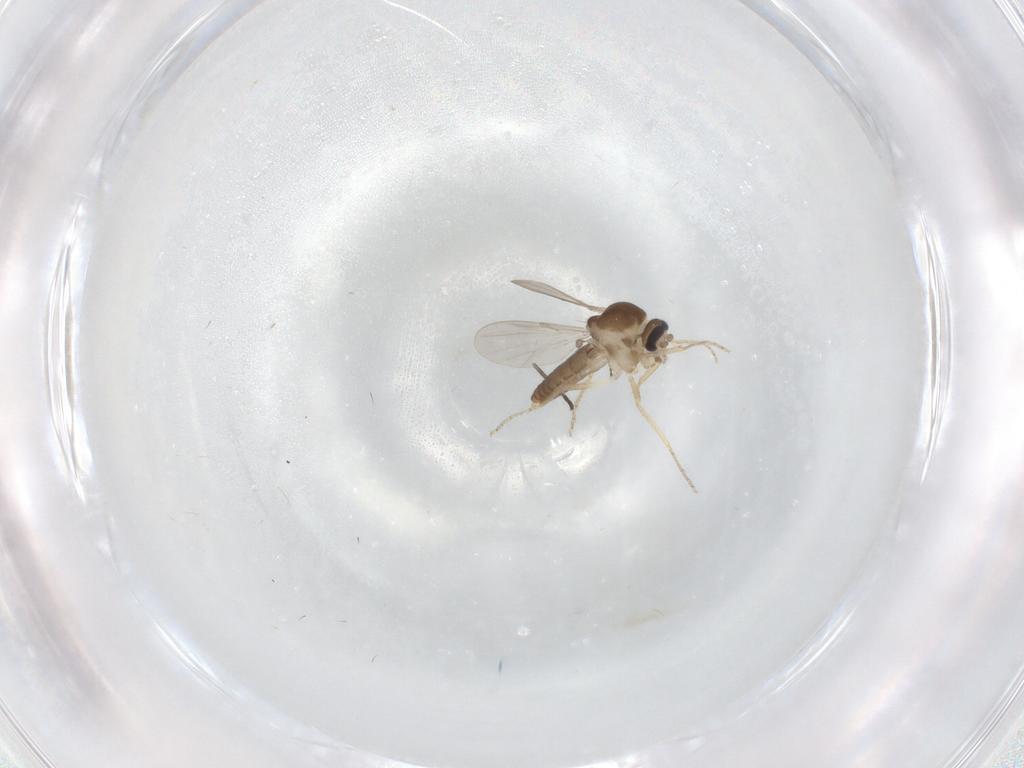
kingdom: Animalia
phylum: Arthropoda
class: Insecta
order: Diptera
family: Ceratopogonidae
